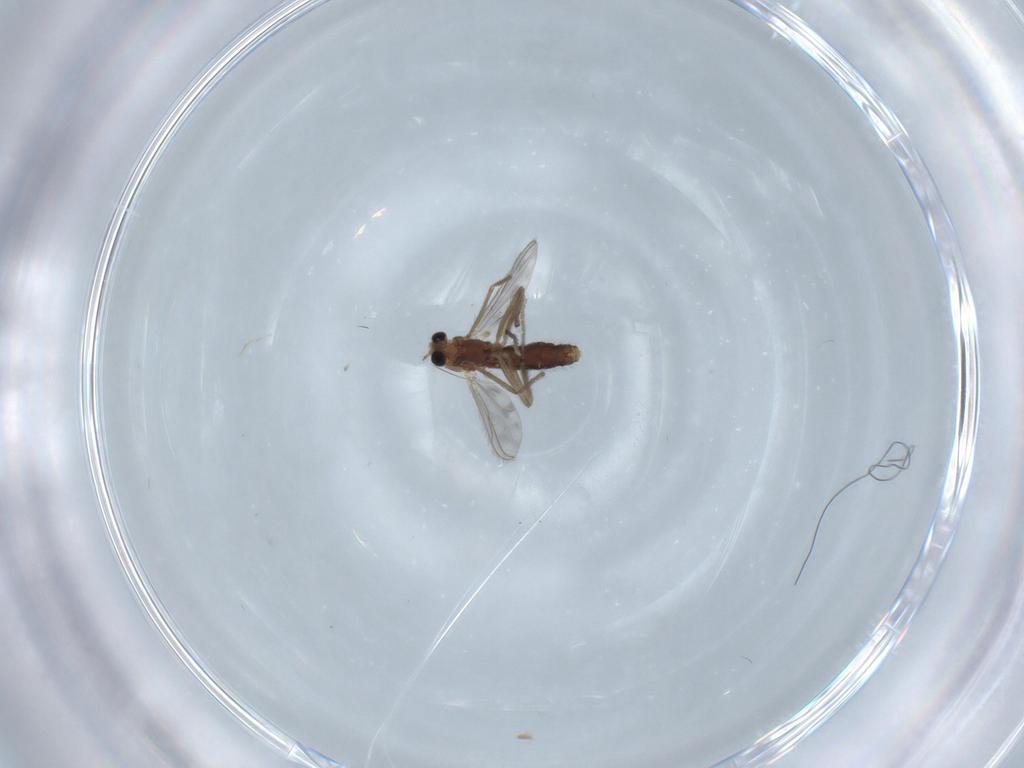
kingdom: Animalia
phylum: Arthropoda
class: Insecta
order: Diptera
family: Chironomidae
